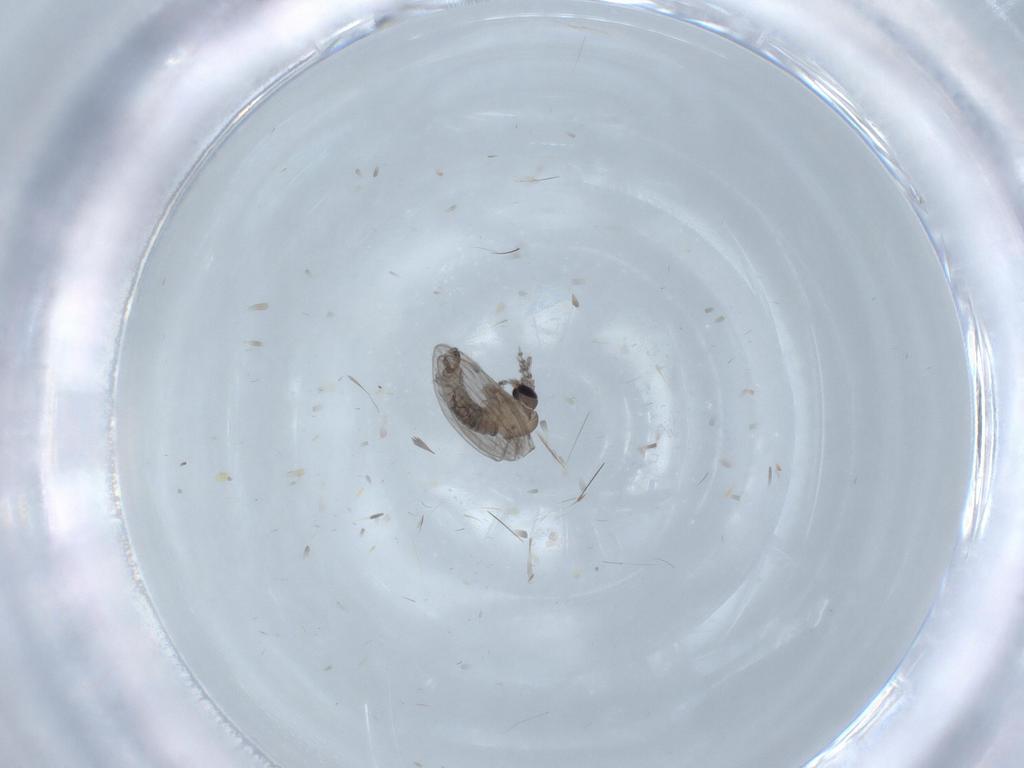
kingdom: Animalia
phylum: Arthropoda
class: Insecta
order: Diptera
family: Psychodidae
